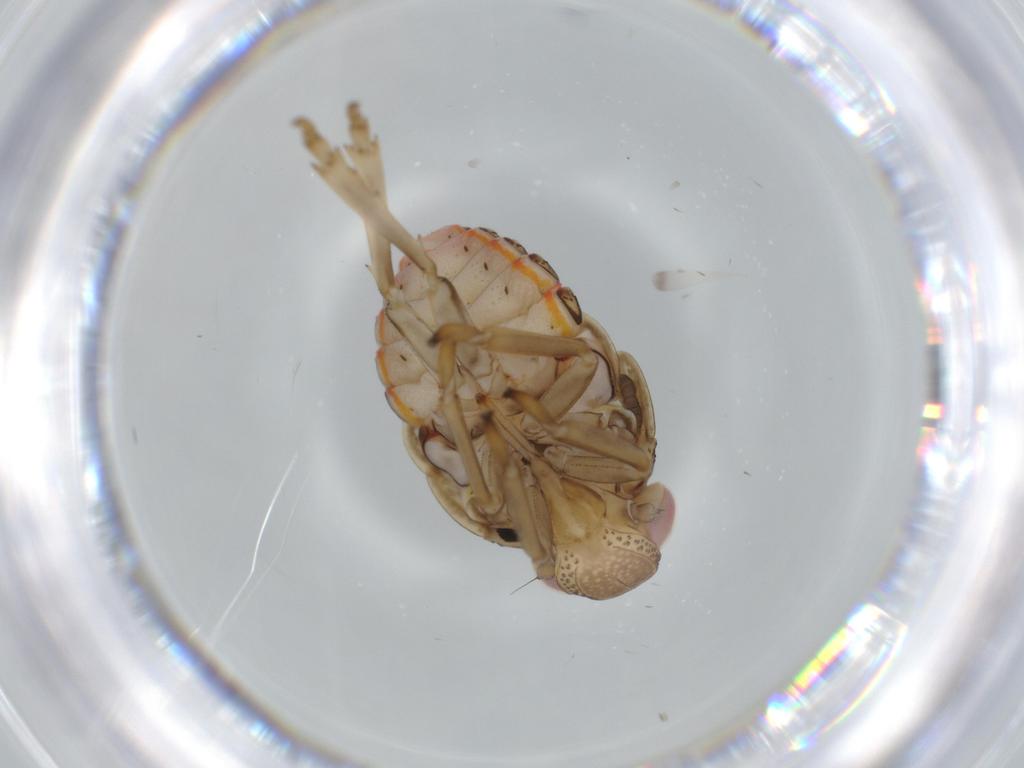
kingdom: Animalia
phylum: Arthropoda
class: Insecta
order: Hemiptera
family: Issidae
